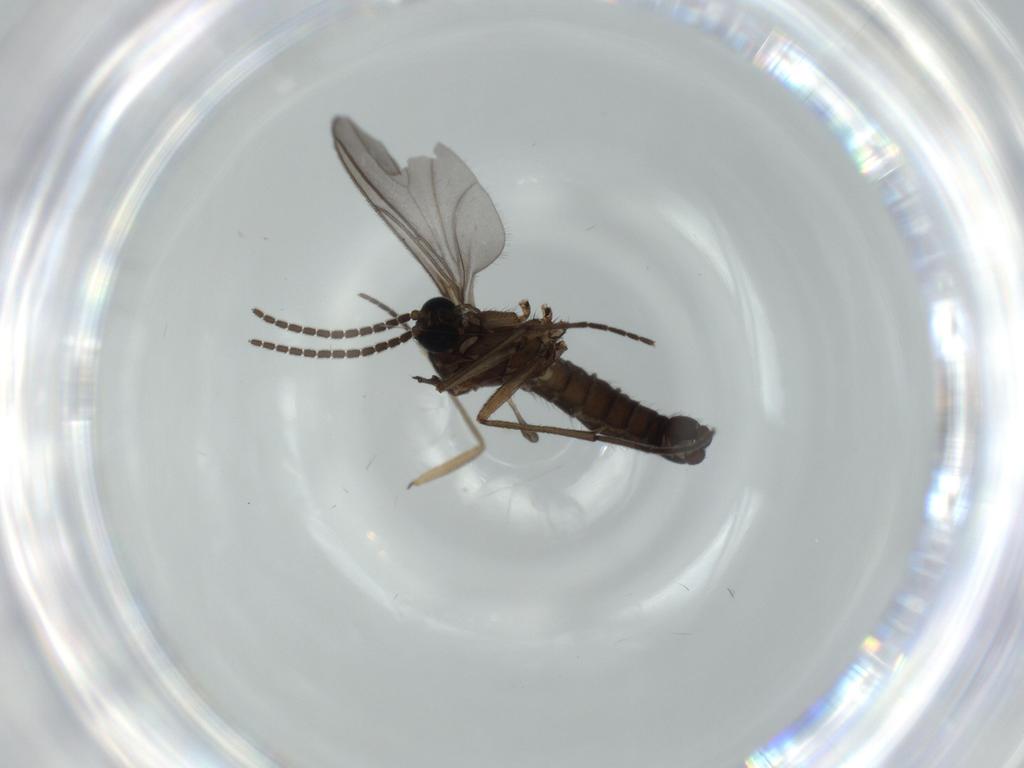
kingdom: Animalia
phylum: Arthropoda
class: Insecta
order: Diptera
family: Sciaridae
